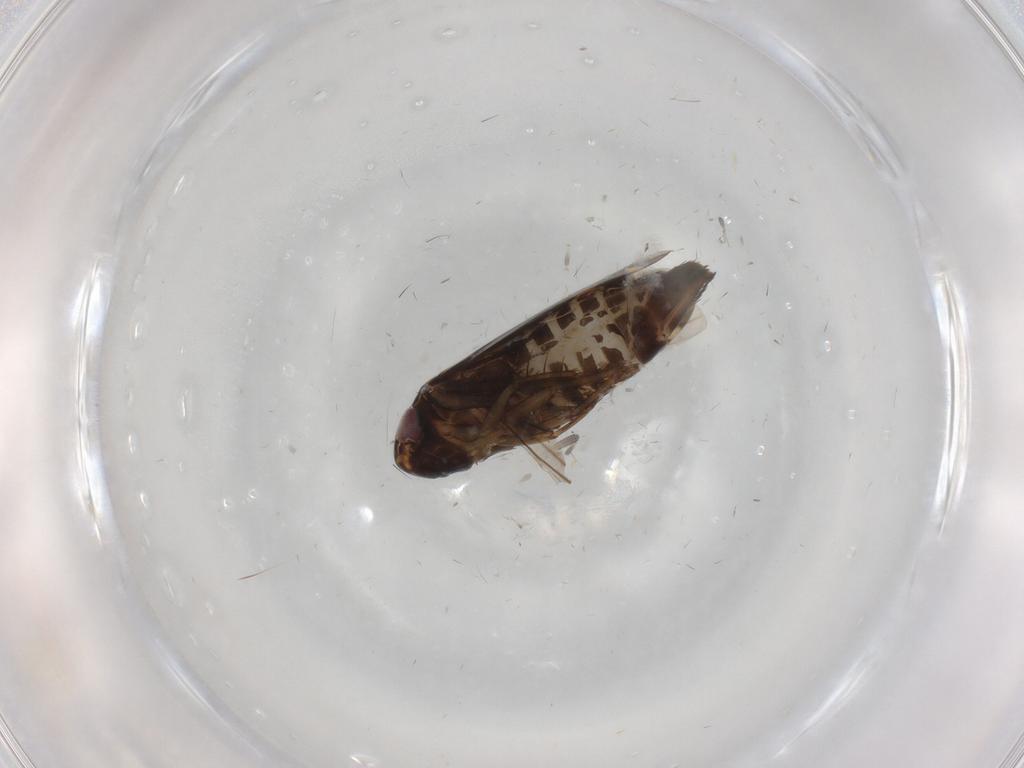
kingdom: Animalia
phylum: Arthropoda
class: Insecta
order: Hemiptera
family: Cicadellidae
